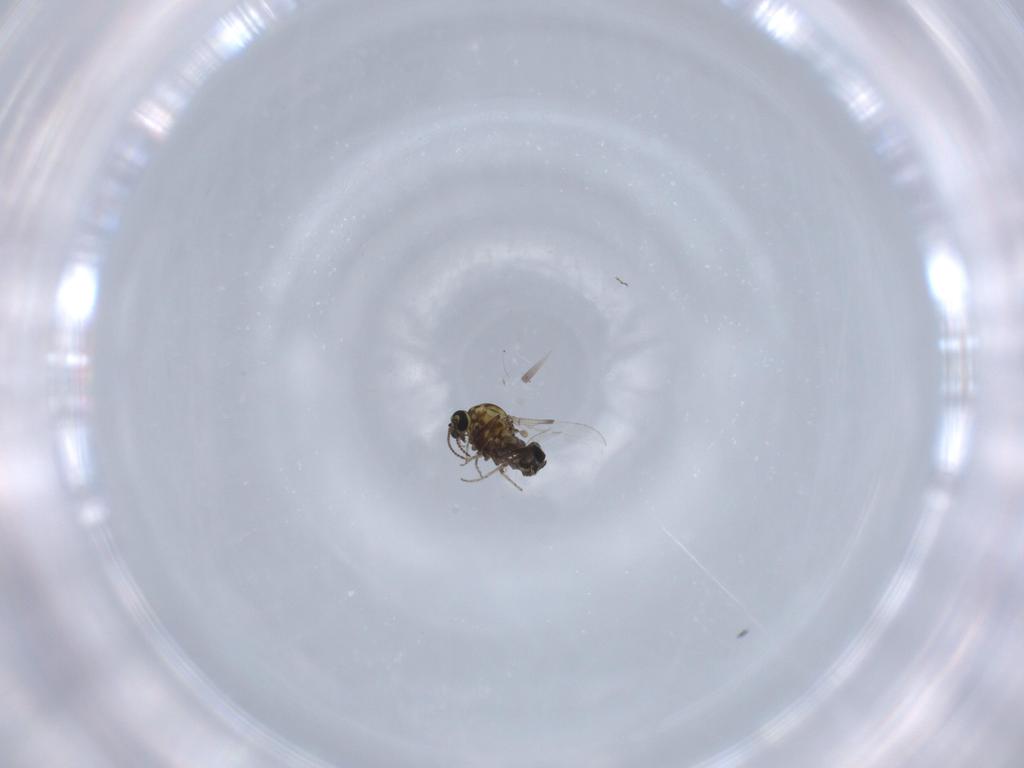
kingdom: Animalia
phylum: Arthropoda
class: Insecta
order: Diptera
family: Ceratopogonidae
